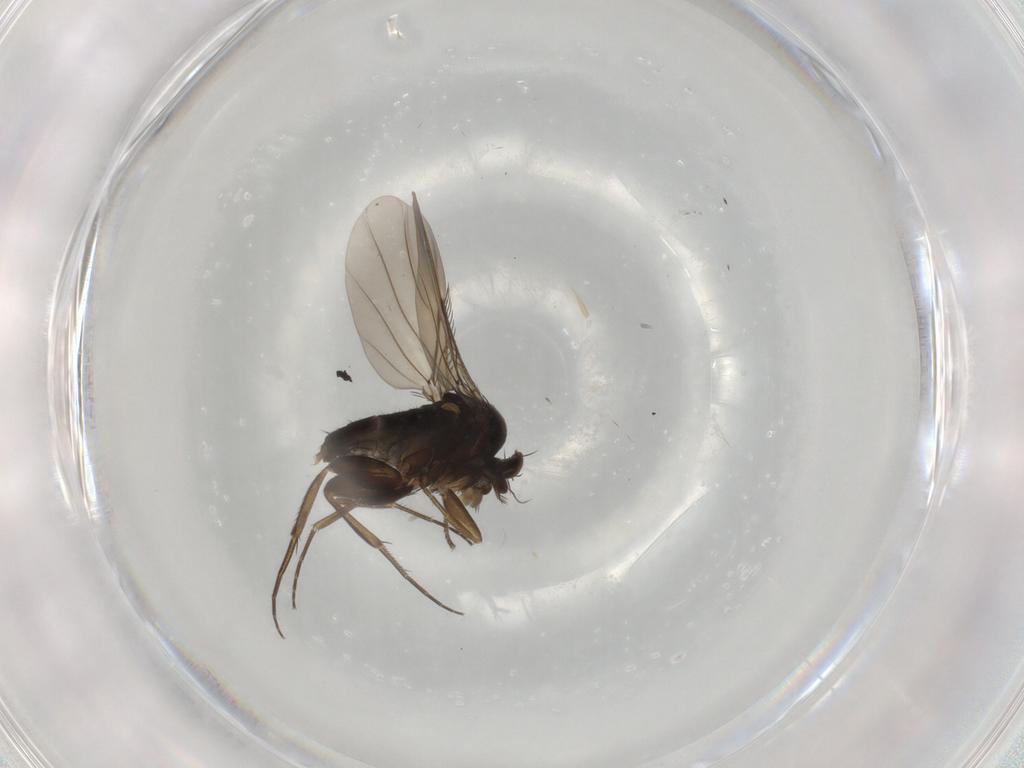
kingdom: Animalia
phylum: Arthropoda
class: Insecta
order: Diptera
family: Phoridae
